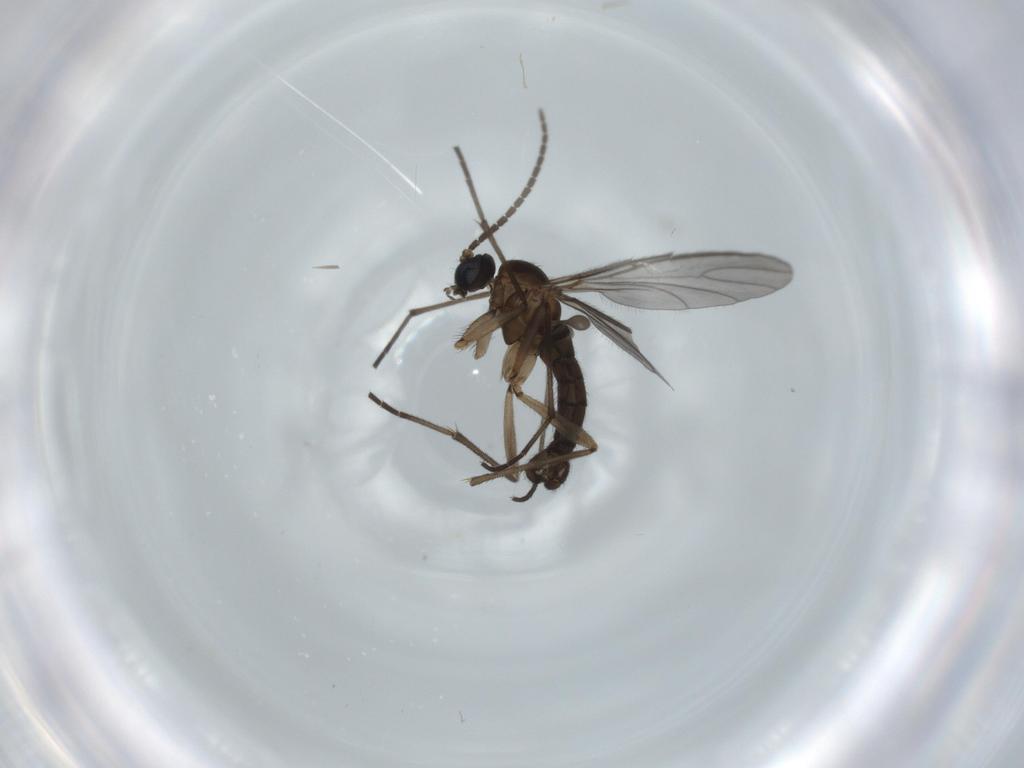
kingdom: Animalia
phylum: Arthropoda
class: Insecta
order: Diptera
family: Sciaridae
